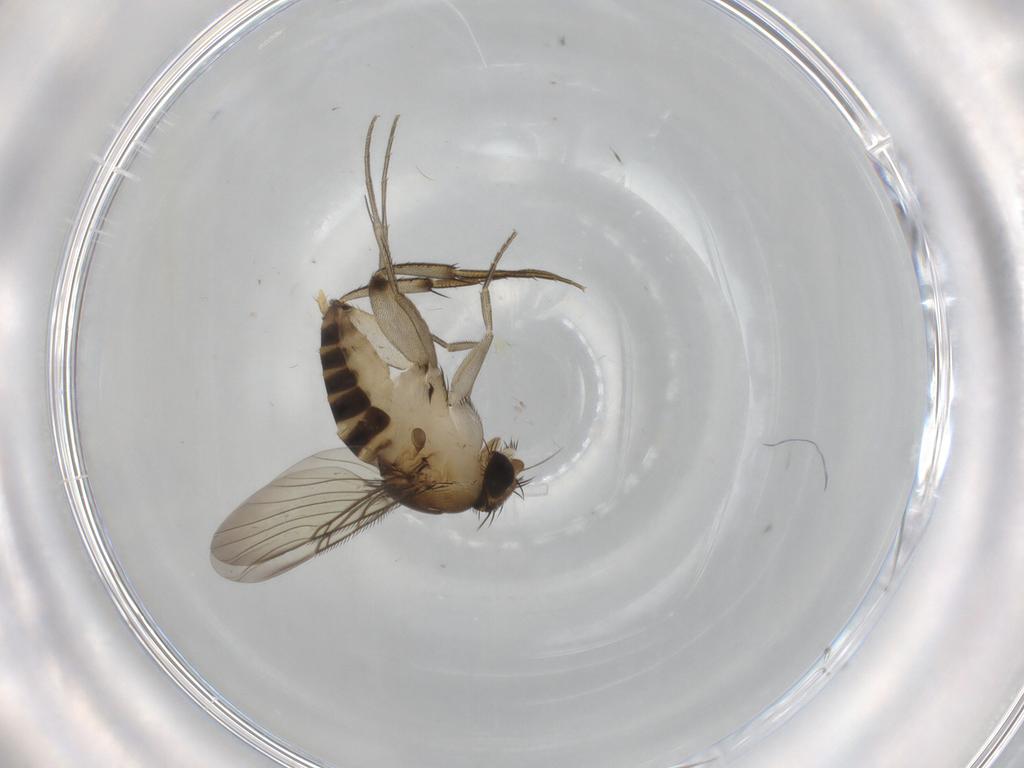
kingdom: Animalia
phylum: Arthropoda
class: Insecta
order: Diptera
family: Phoridae
